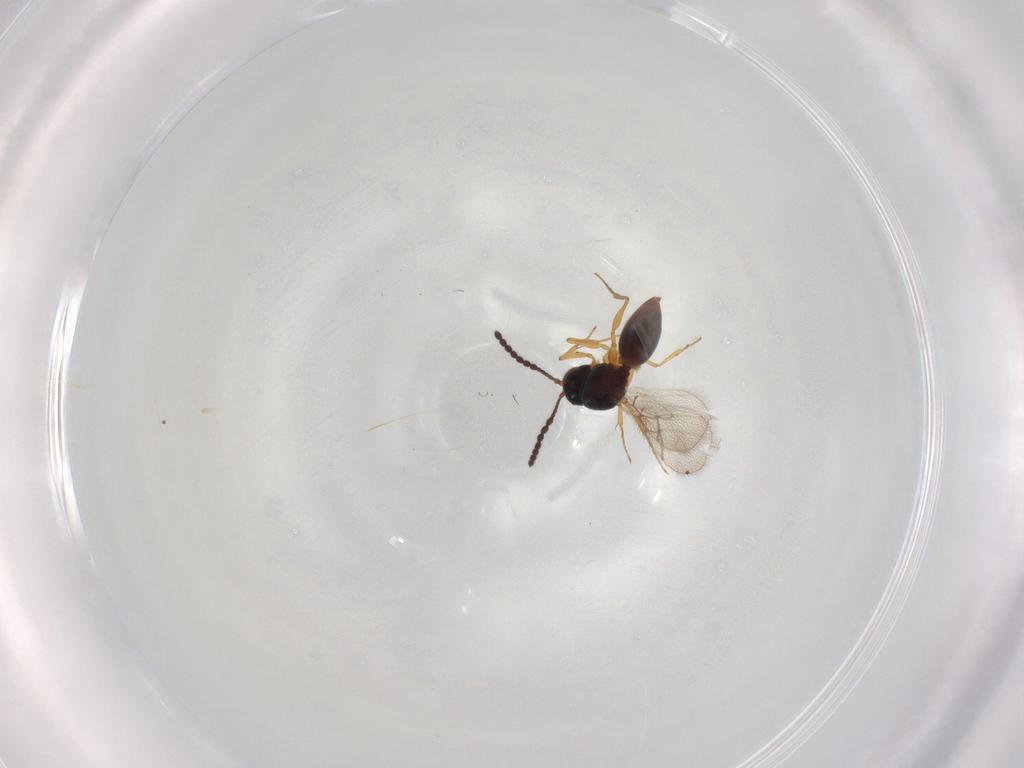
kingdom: Animalia
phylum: Arthropoda
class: Insecta
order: Hymenoptera
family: Figitidae
